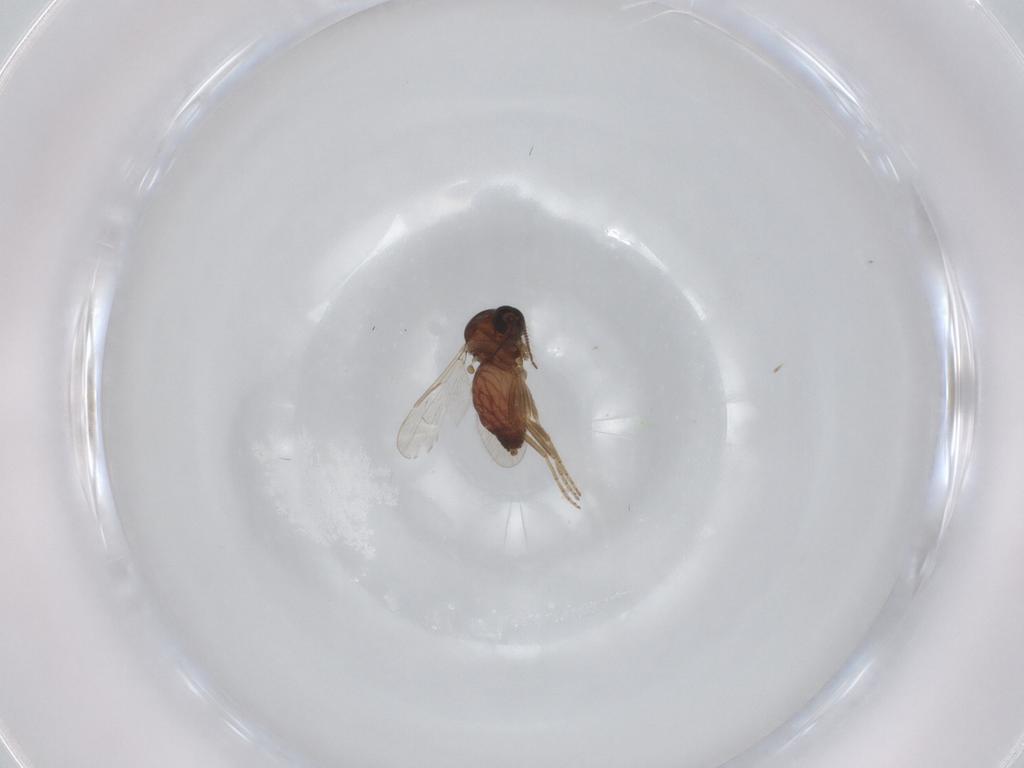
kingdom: Animalia
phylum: Arthropoda
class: Insecta
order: Diptera
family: Ceratopogonidae
